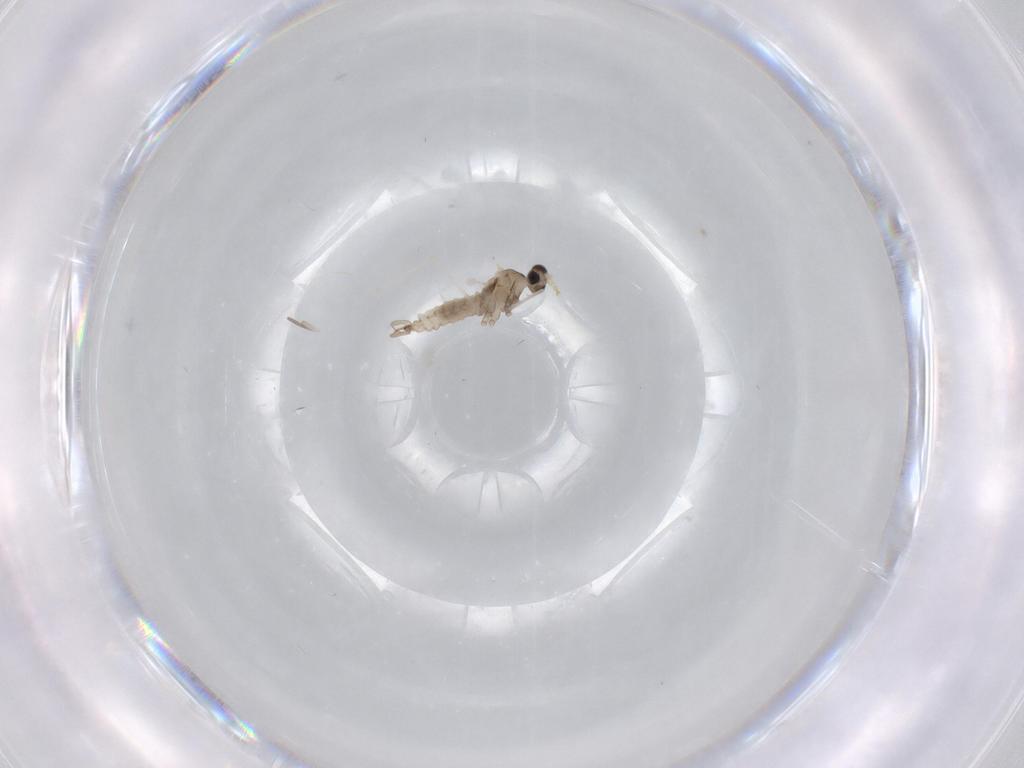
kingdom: Animalia
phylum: Arthropoda
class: Insecta
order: Diptera
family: Cecidomyiidae
